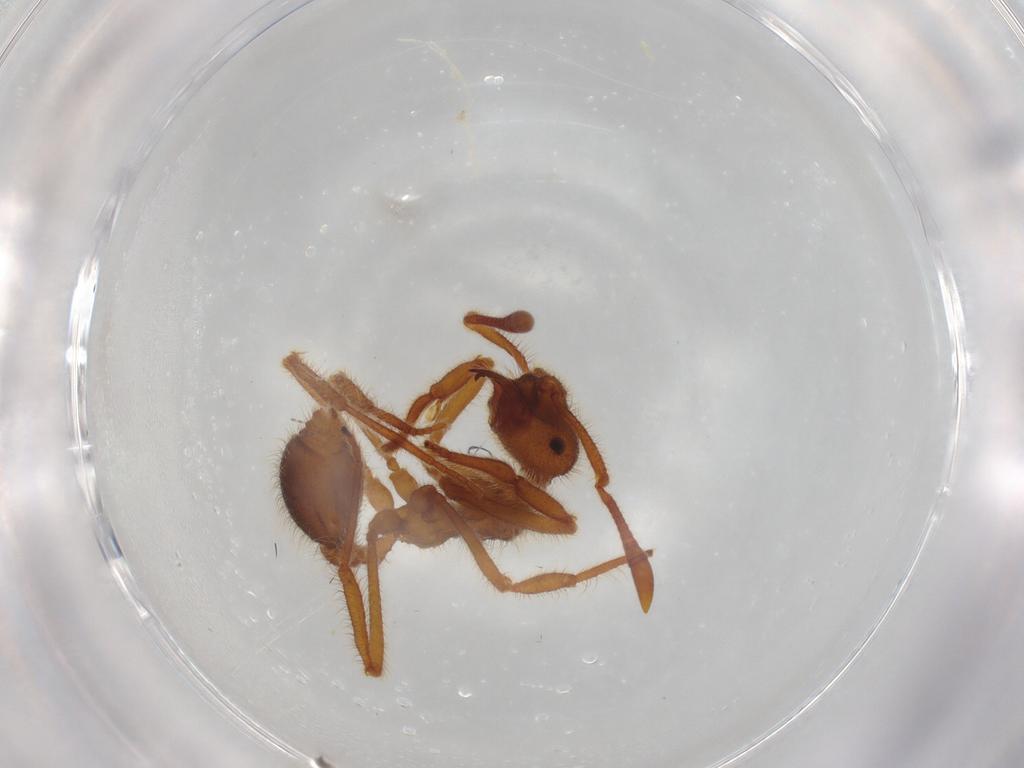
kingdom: Animalia
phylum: Arthropoda
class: Insecta
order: Hymenoptera
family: Formicidae
